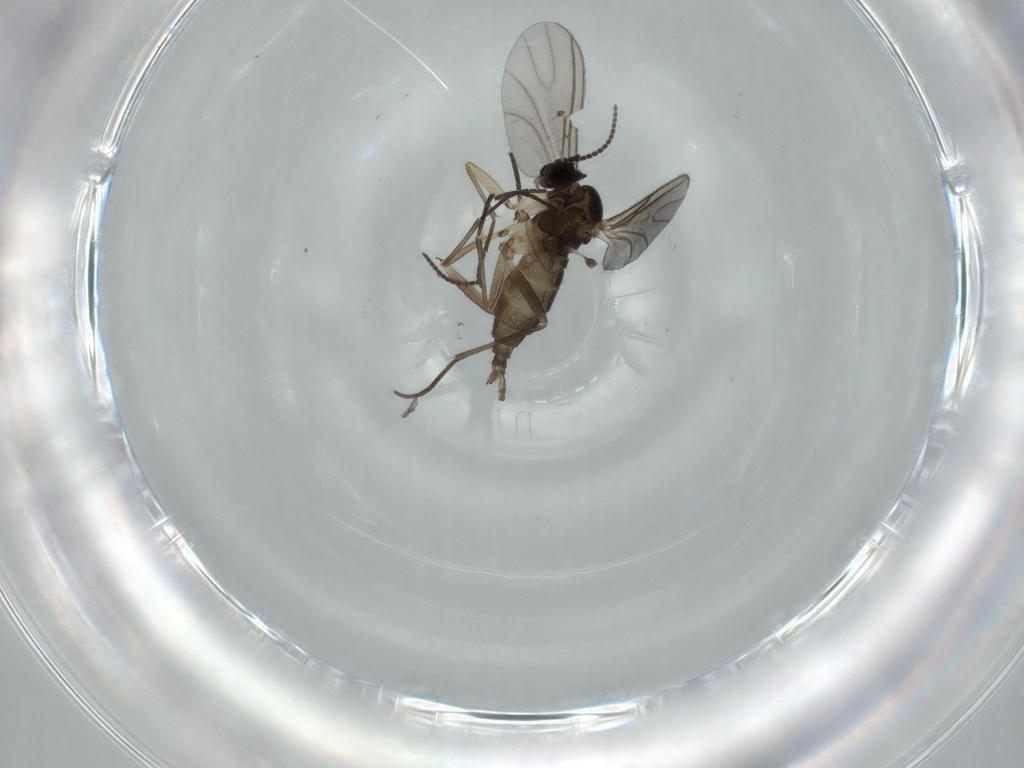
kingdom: Animalia
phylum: Arthropoda
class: Insecta
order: Diptera
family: Sciaridae
